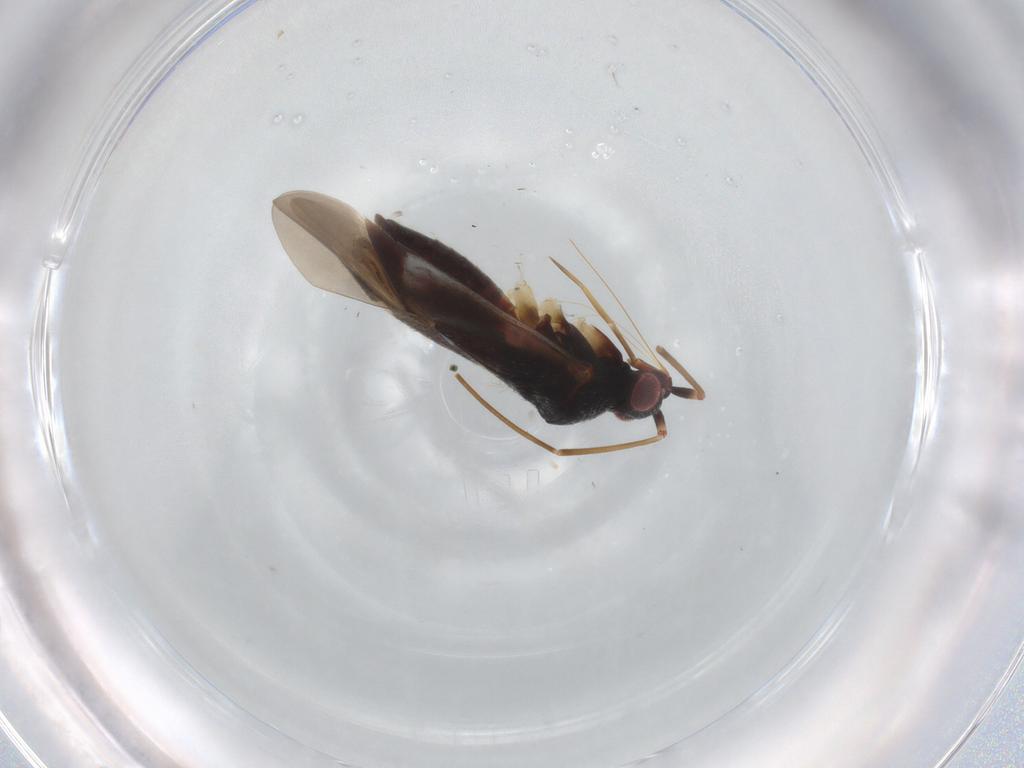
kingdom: Animalia
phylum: Arthropoda
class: Insecta
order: Hemiptera
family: Miridae
